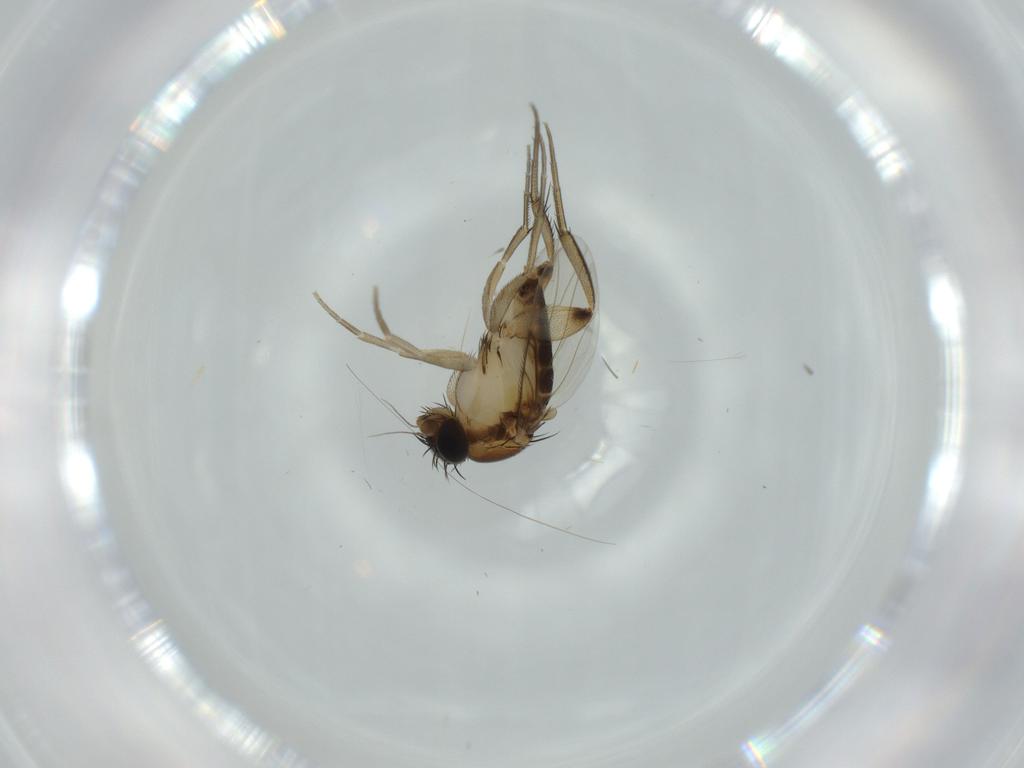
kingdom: Animalia
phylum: Arthropoda
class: Insecta
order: Diptera
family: Phoridae
